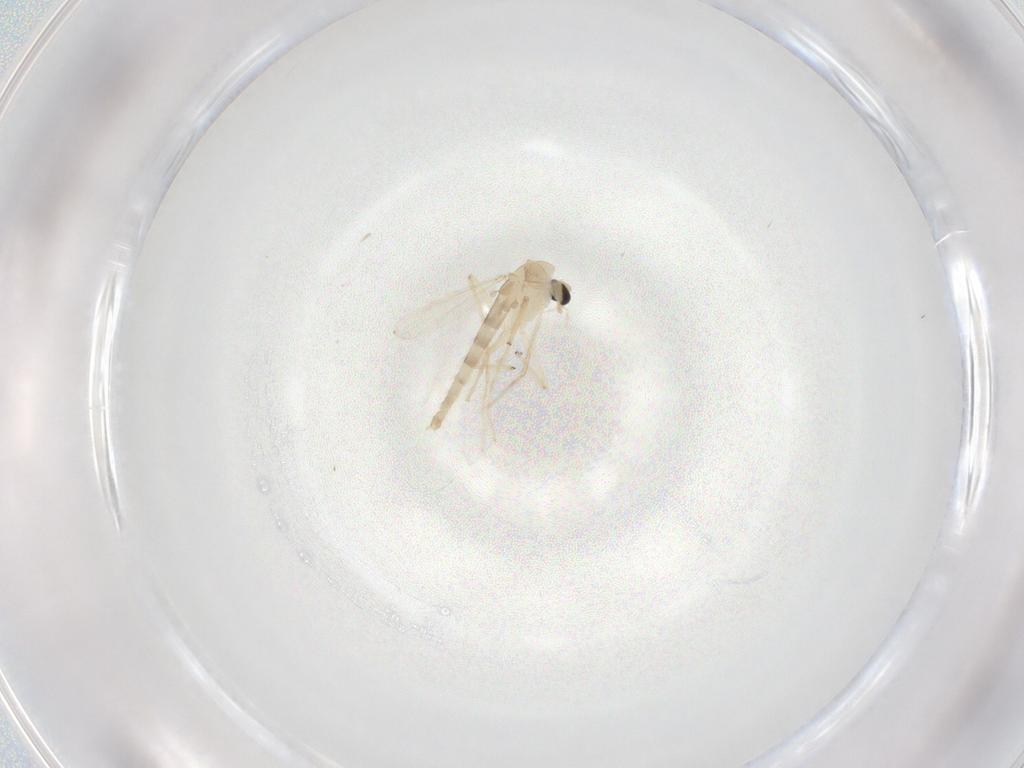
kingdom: Animalia
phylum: Arthropoda
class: Insecta
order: Diptera
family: Chironomidae
